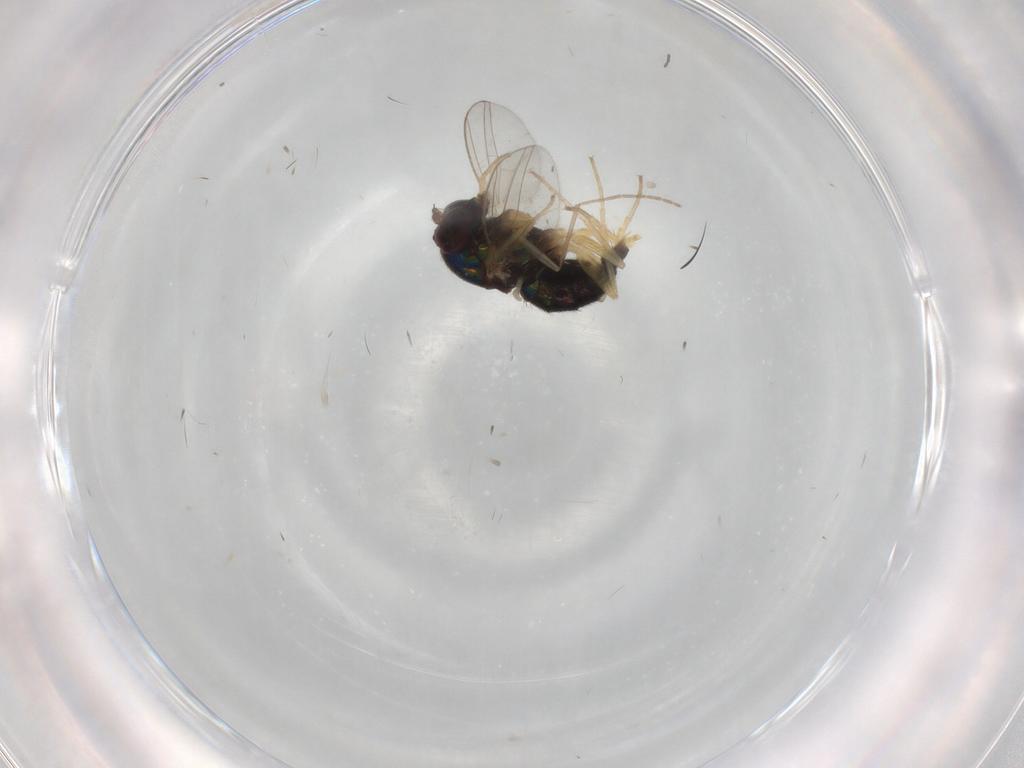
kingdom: Animalia
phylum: Arthropoda
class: Insecta
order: Diptera
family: Dolichopodidae
